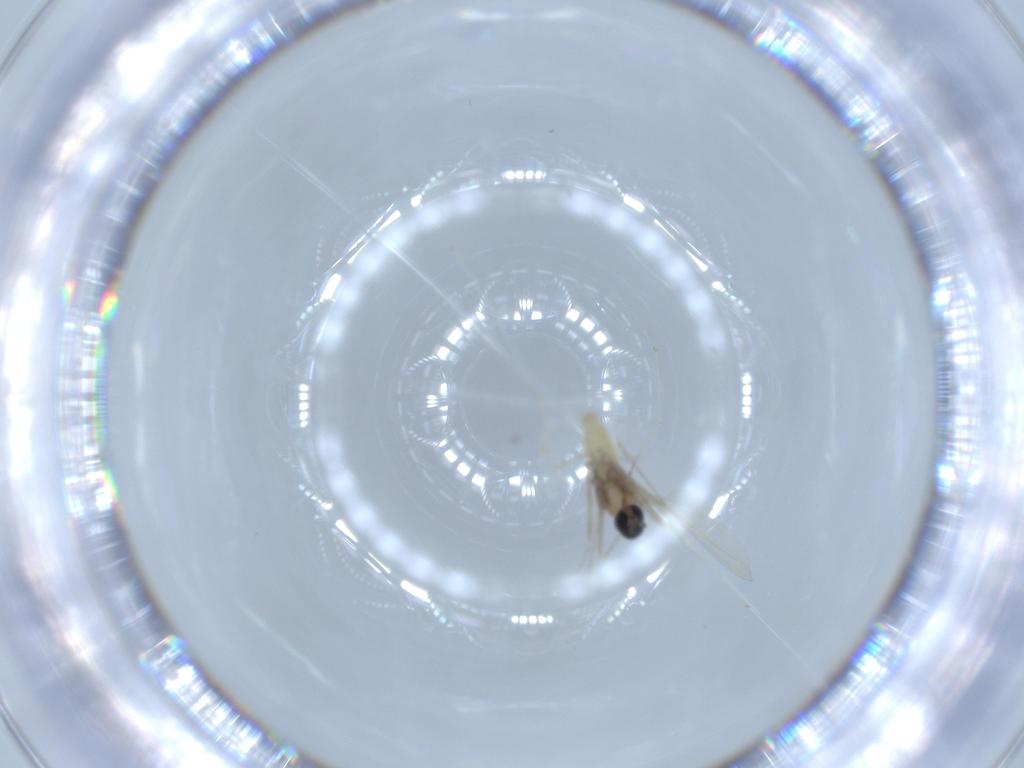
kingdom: Animalia
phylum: Arthropoda
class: Insecta
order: Diptera
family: Cecidomyiidae
